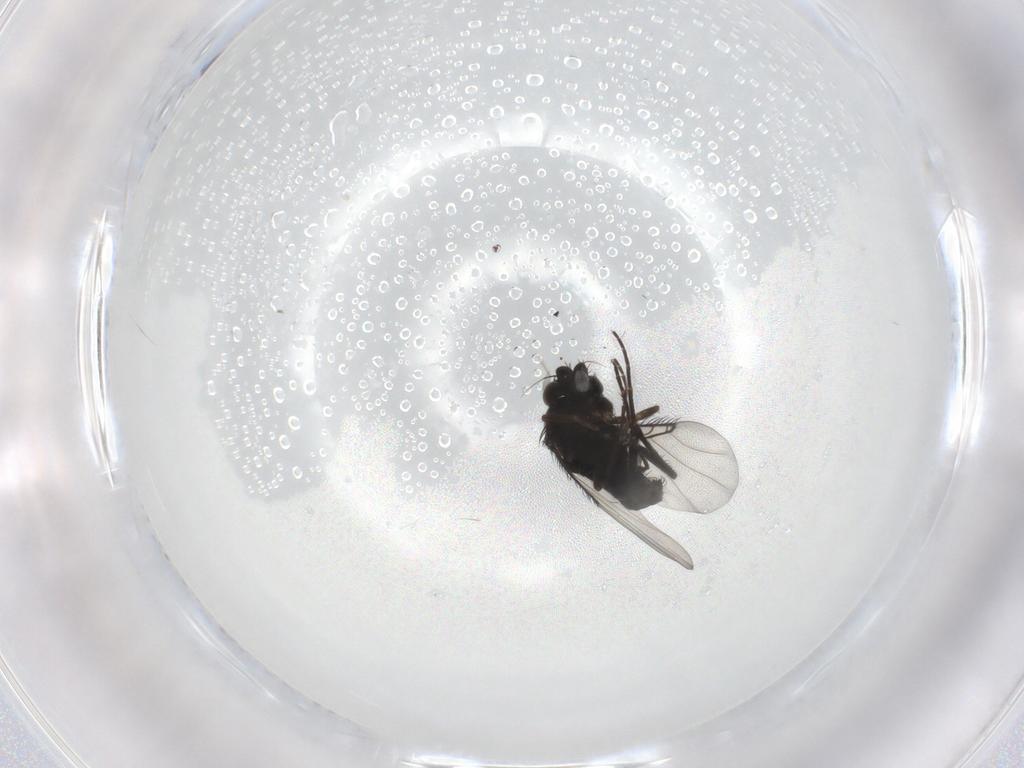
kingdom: Animalia
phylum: Arthropoda
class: Insecta
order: Diptera
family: Phoridae
